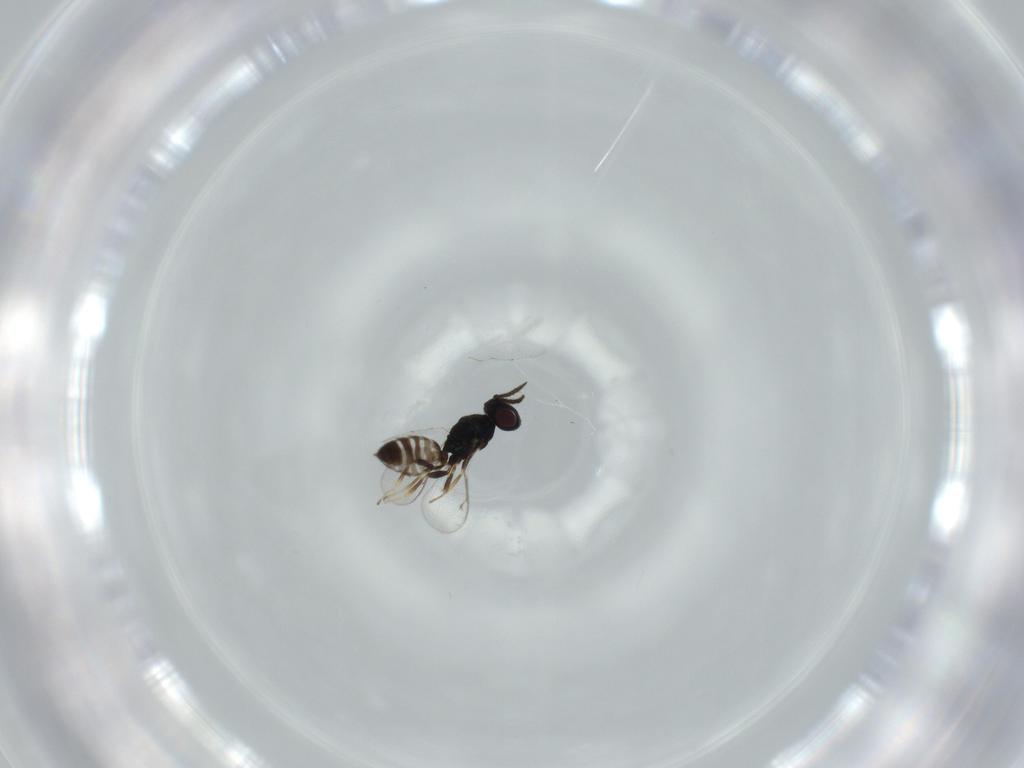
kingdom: Animalia
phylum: Arthropoda
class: Insecta
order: Hymenoptera
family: Pteromalidae
